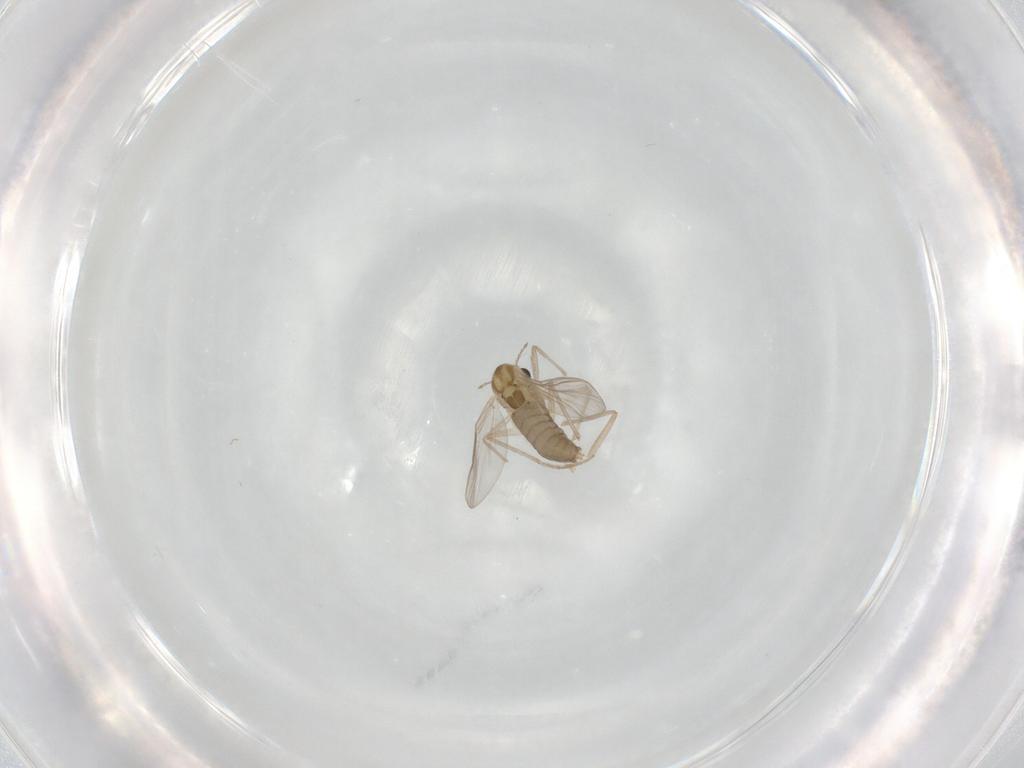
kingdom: Animalia
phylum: Arthropoda
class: Insecta
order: Diptera
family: Chironomidae
